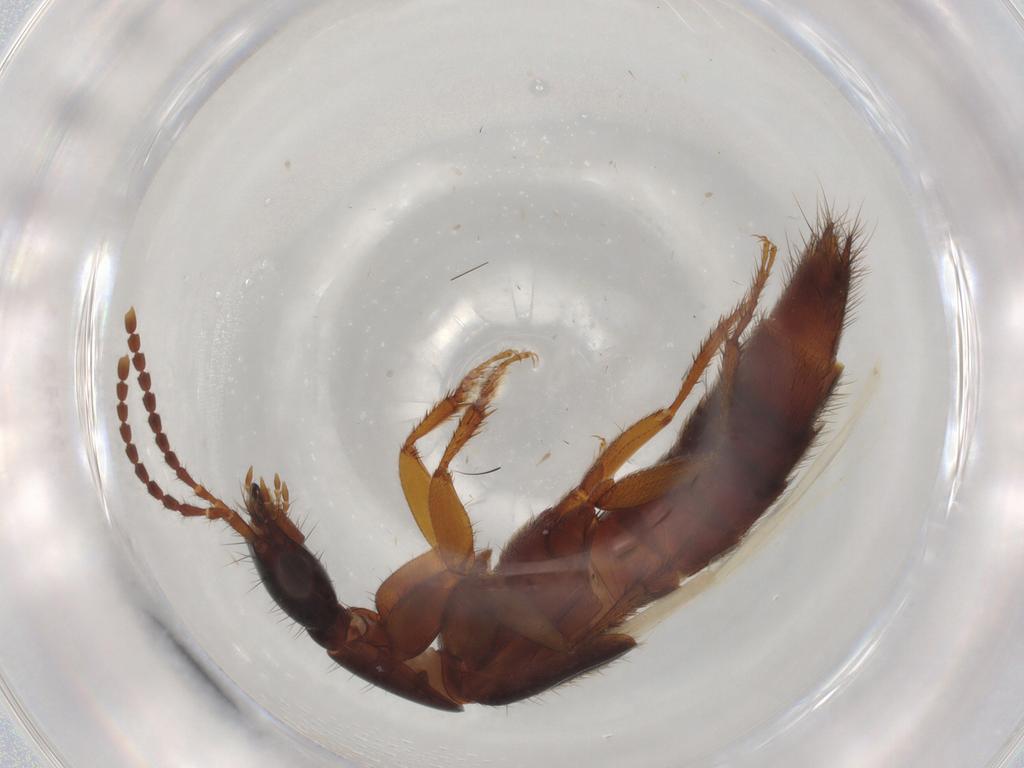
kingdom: Animalia
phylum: Arthropoda
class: Insecta
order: Coleoptera
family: Staphylinidae
